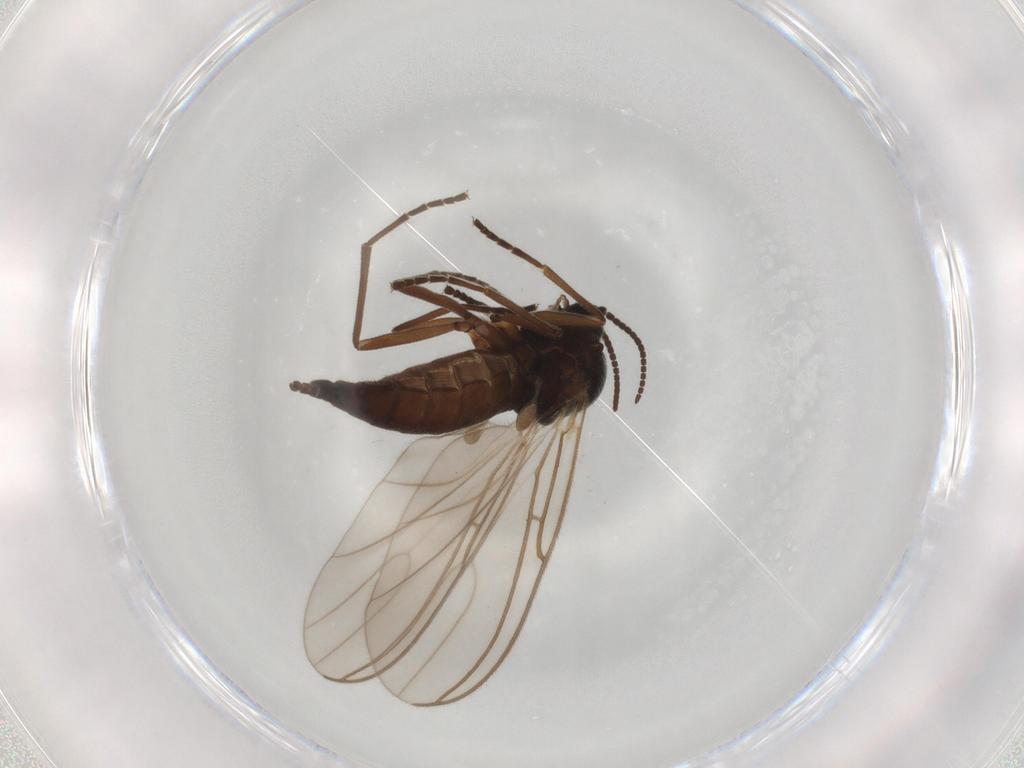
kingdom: Animalia
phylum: Arthropoda
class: Insecta
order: Diptera
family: Sciaridae
